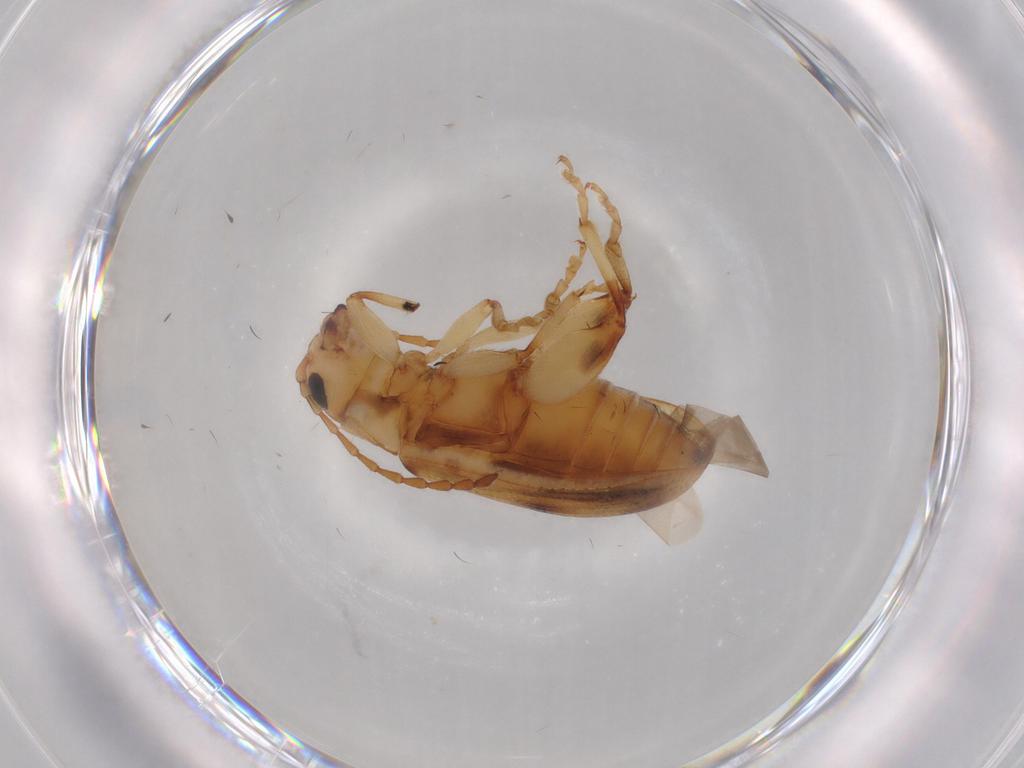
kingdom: Animalia
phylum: Arthropoda
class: Insecta
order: Coleoptera
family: Chrysomelidae
